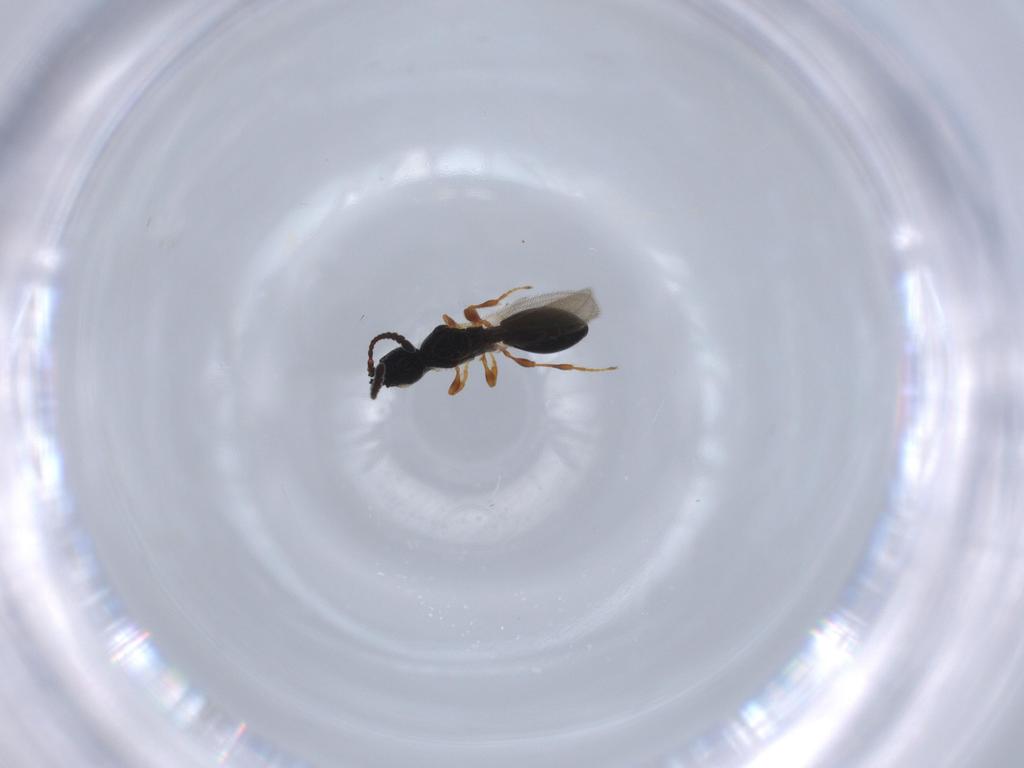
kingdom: Animalia
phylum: Arthropoda
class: Insecta
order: Hymenoptera
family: Diapriidae
